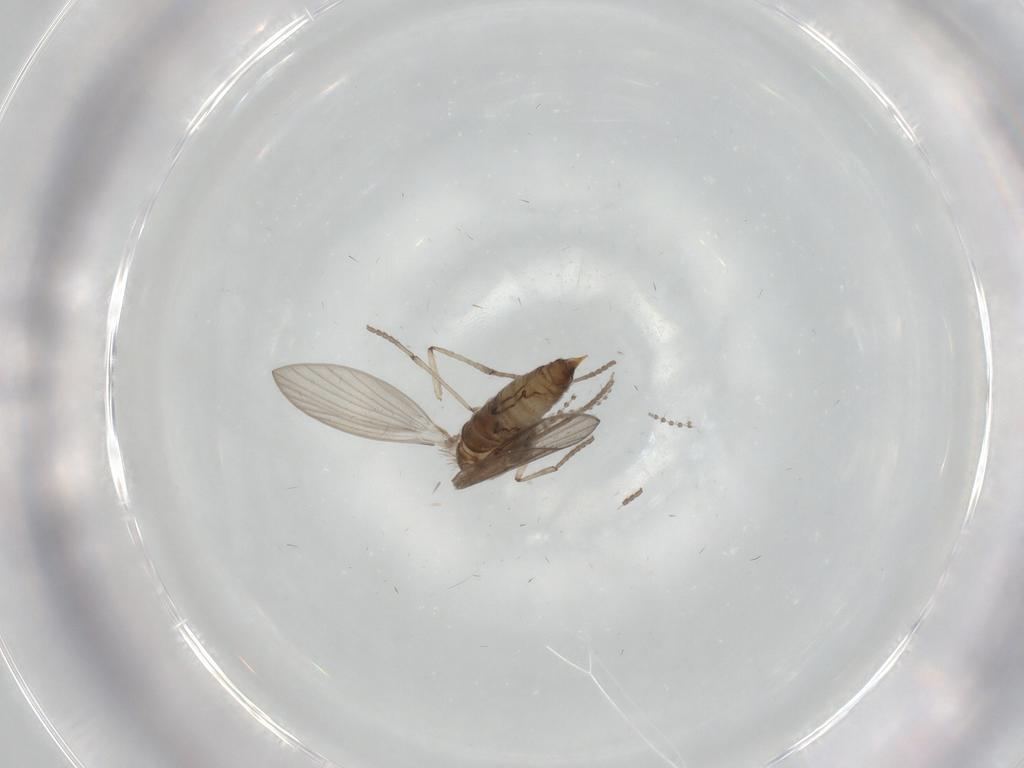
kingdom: Animalia
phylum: Arthropoda
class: Insecta
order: Diptera
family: Psychodidae
